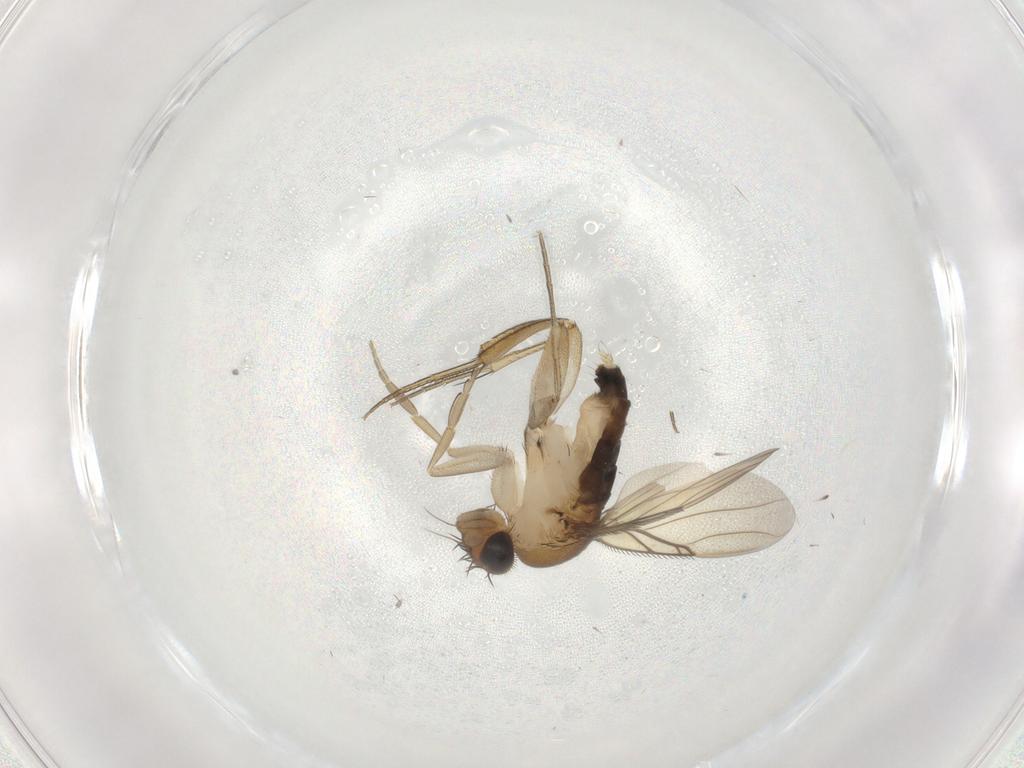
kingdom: Animalia
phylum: Arthropoda
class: Insecta
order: Diptera
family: Phoridae
